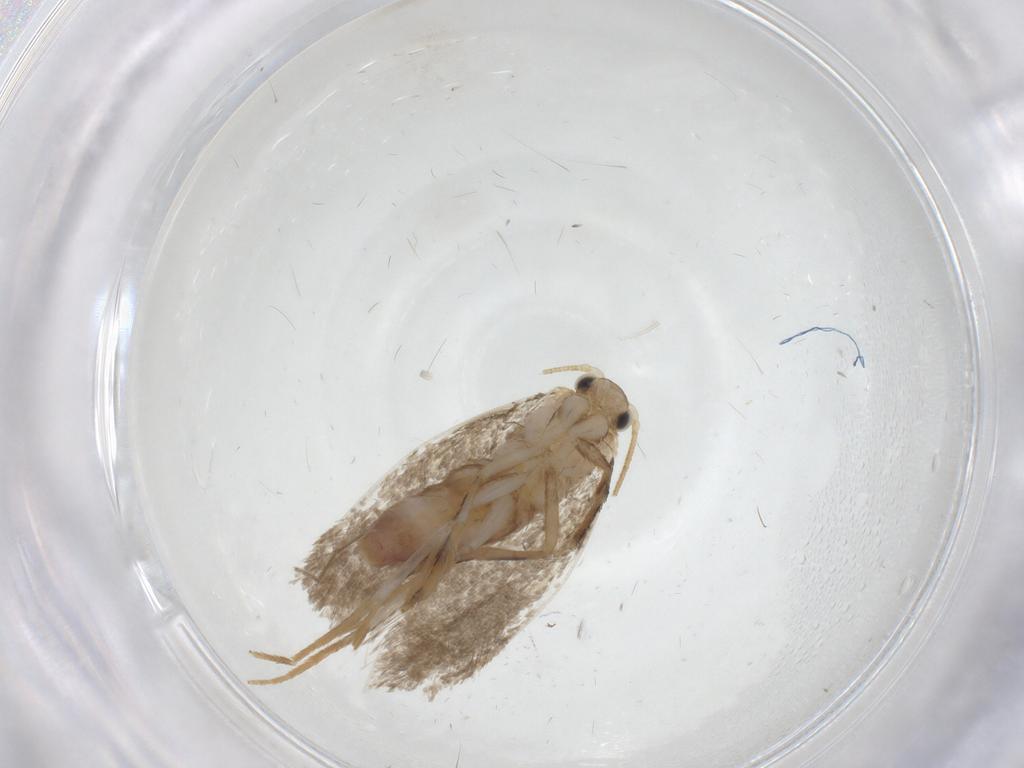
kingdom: Animalia
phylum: Arthropoda
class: Insecta
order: Lepidoptera
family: Dryadaulidae
